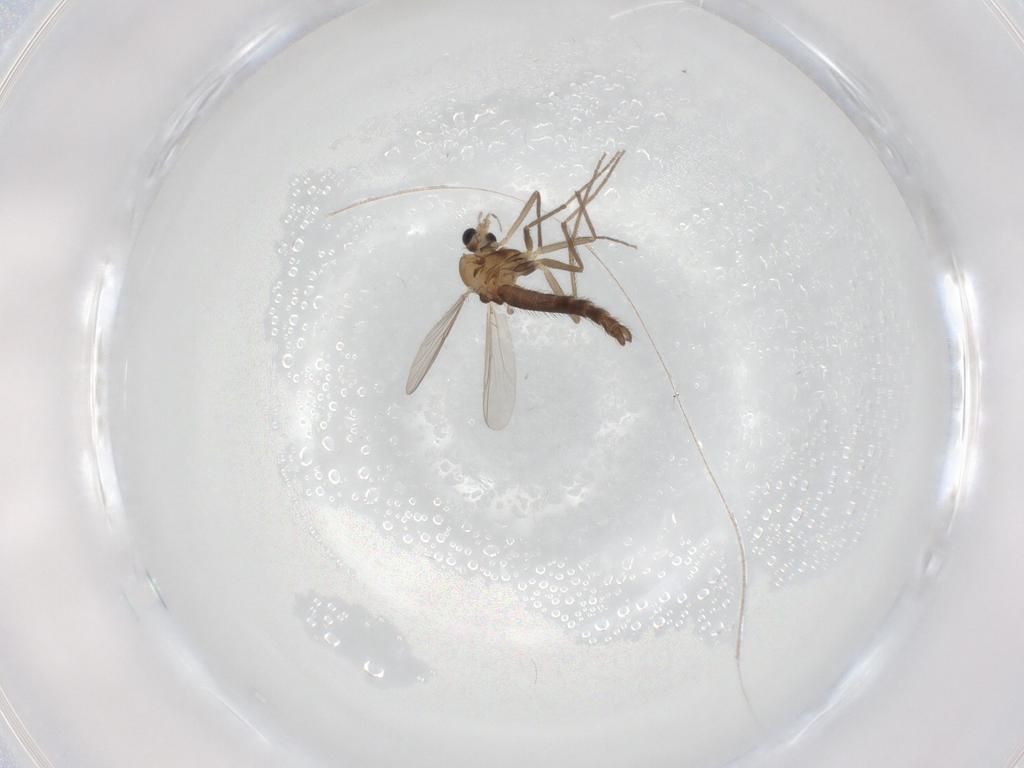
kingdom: Animalia
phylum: Arthropoda
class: Insecta
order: Diptera
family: Chironomidae
